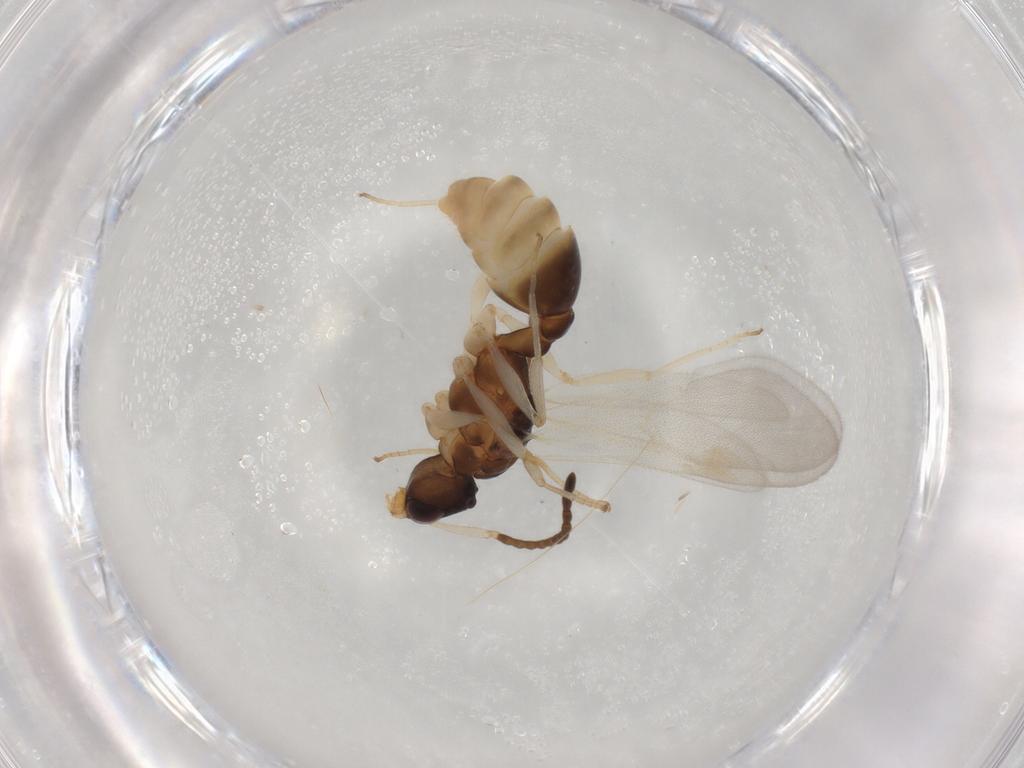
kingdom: Animalia
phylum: Arthropoda
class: Insecta
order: Hymenoptera
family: Formicidae
